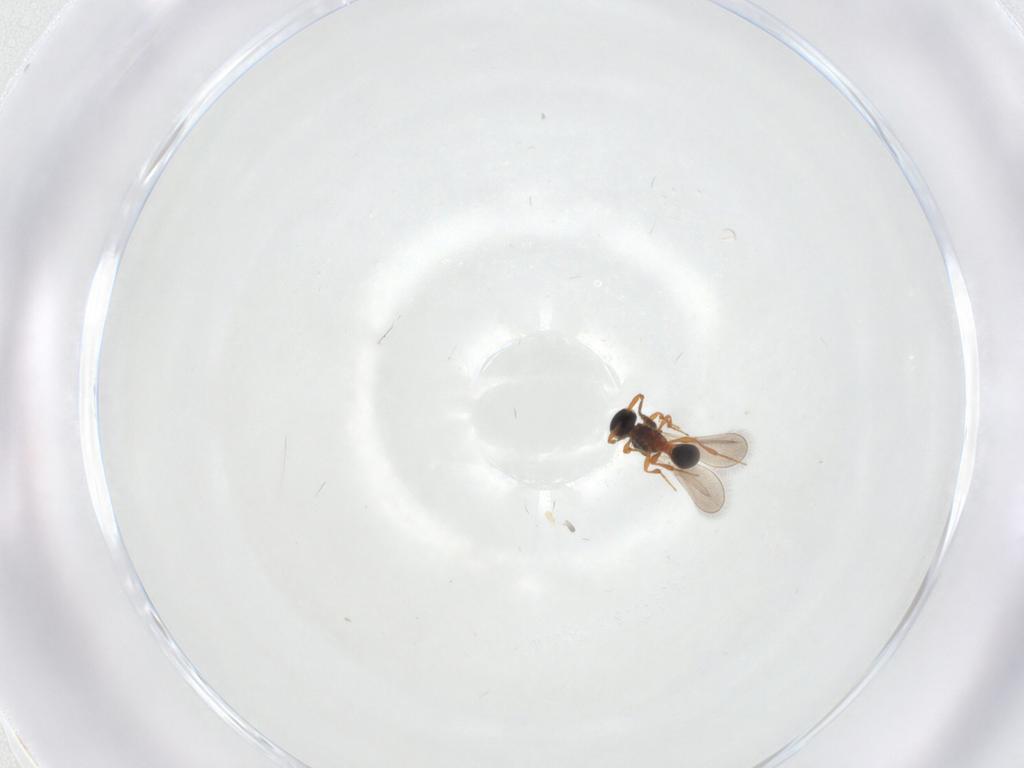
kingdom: Animalia
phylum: Arthropoda
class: Insecta
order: Hymenoptera
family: Platygastridae
